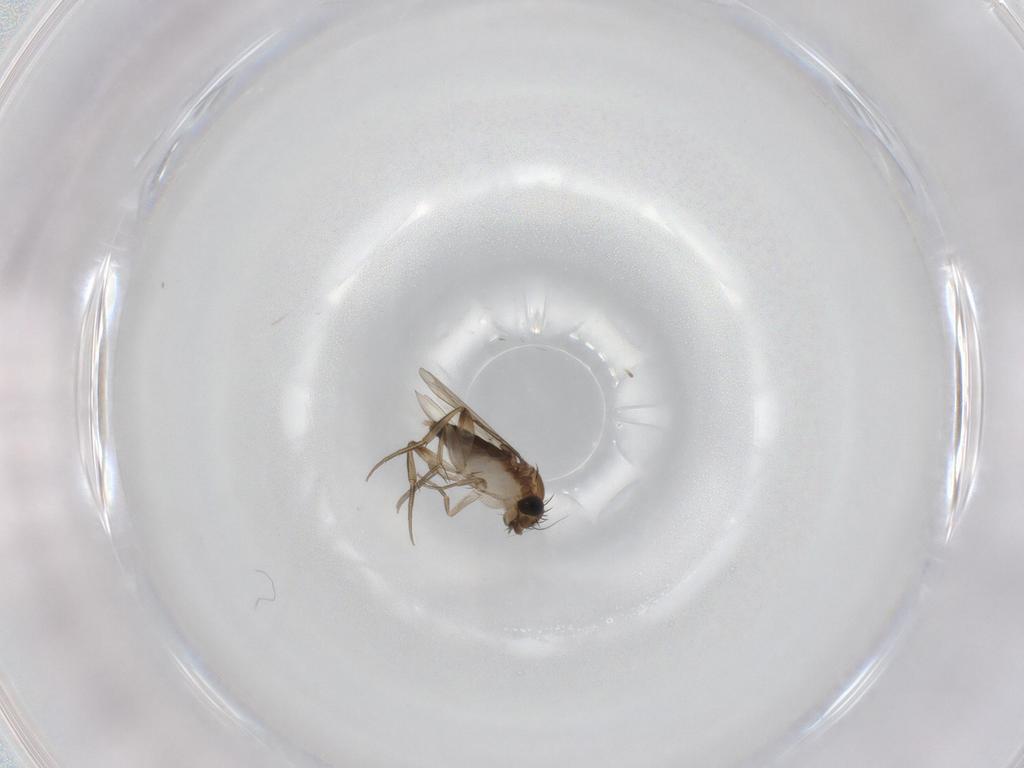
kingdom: Animalia
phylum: Arthropoda
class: Insecta
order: Diptera
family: Phoridae
